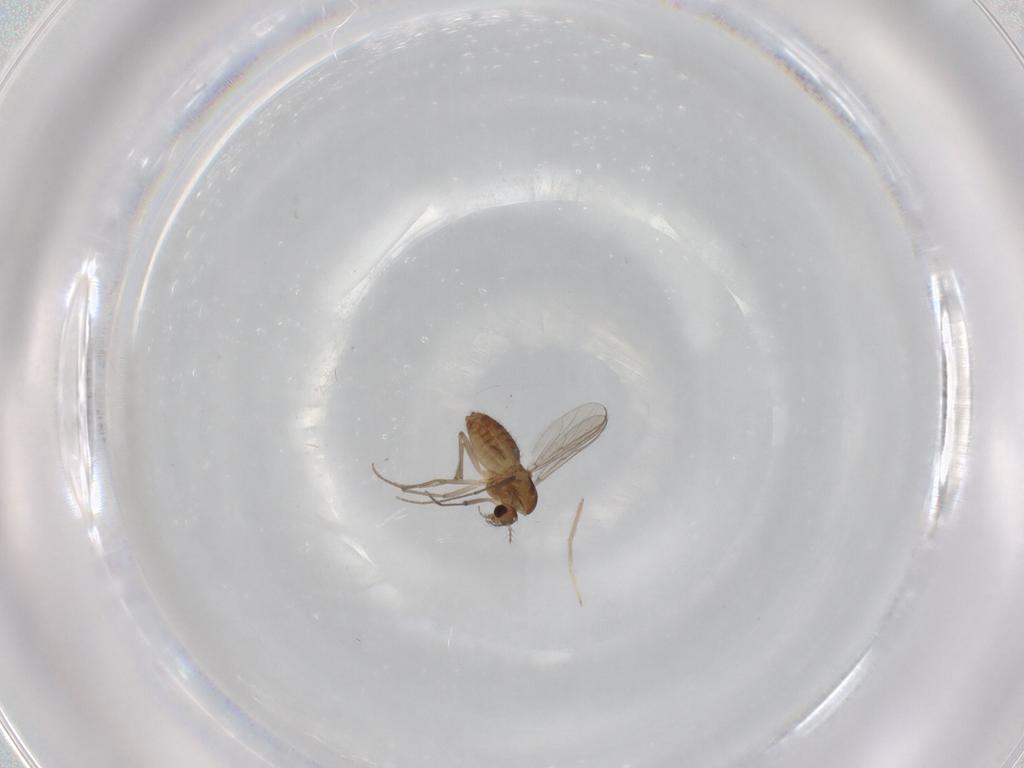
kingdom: Animalia
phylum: Arthropoda
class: Insecta
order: Diptera
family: Chironomidae
